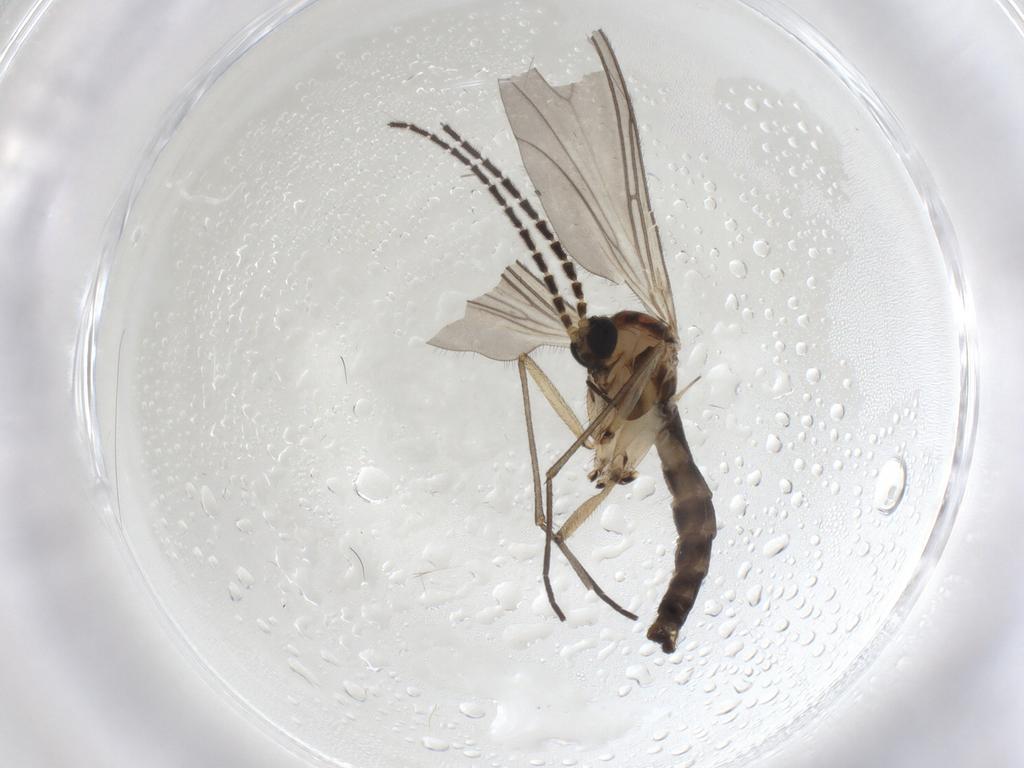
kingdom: Animalia
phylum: Arthropoda
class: Insecta
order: Diptera
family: Sciaridae
